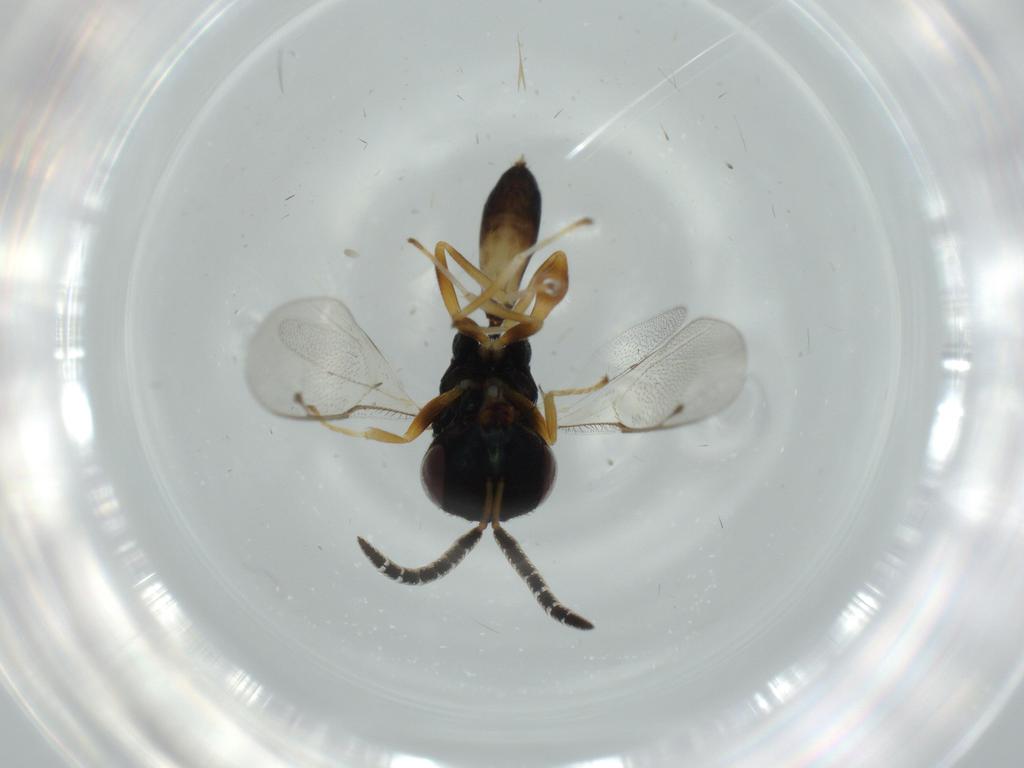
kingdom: Animalia
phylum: Arthropoda
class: Insecta
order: Hymenoptera
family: Agaonidae
